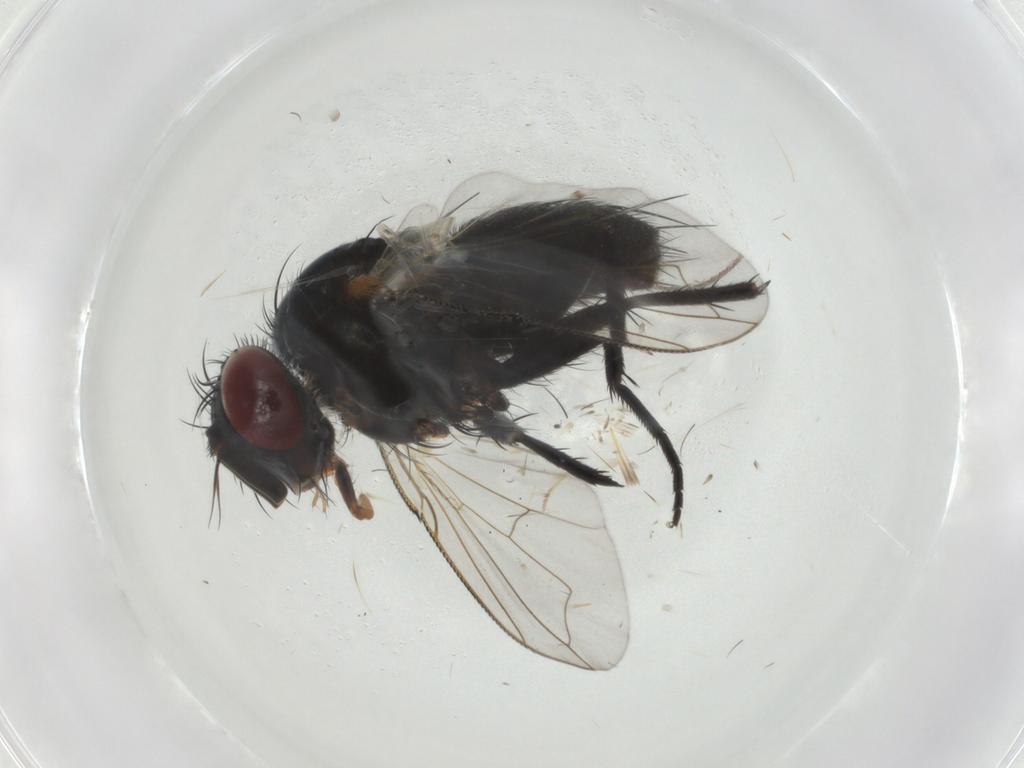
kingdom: Animalia
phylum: Arthropoda
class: Insecta
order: Diptera
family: Tachinidae
